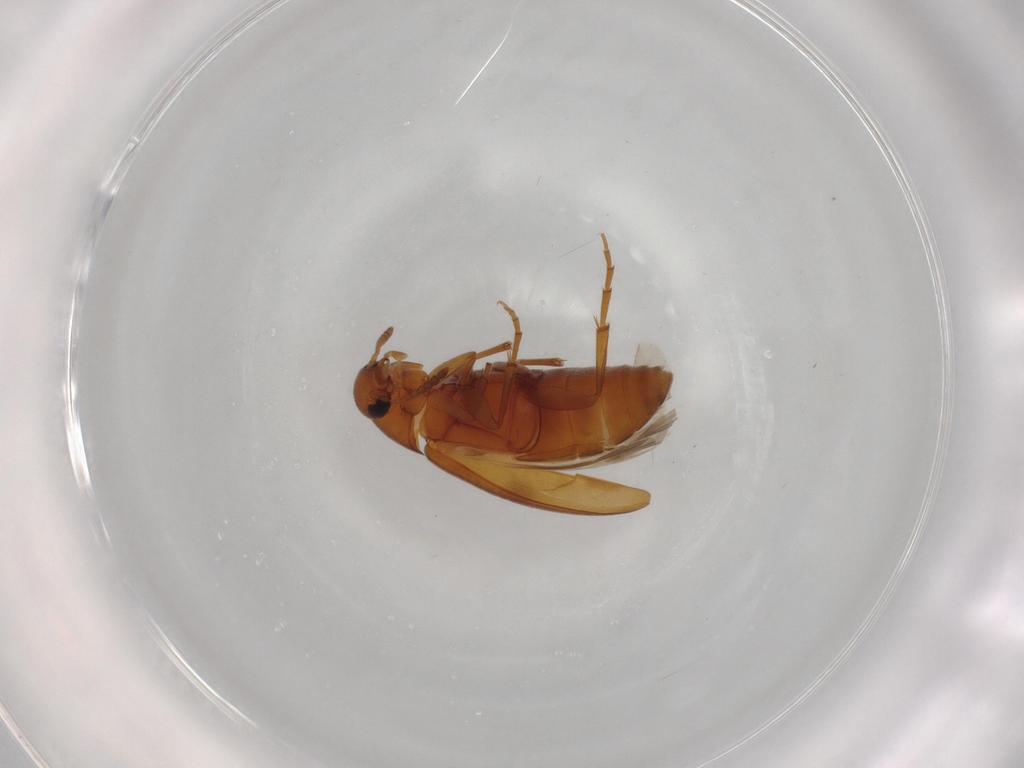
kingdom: Animalia
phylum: Arthropoda
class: Insecta
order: Coleoptera
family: Scraptiidae
